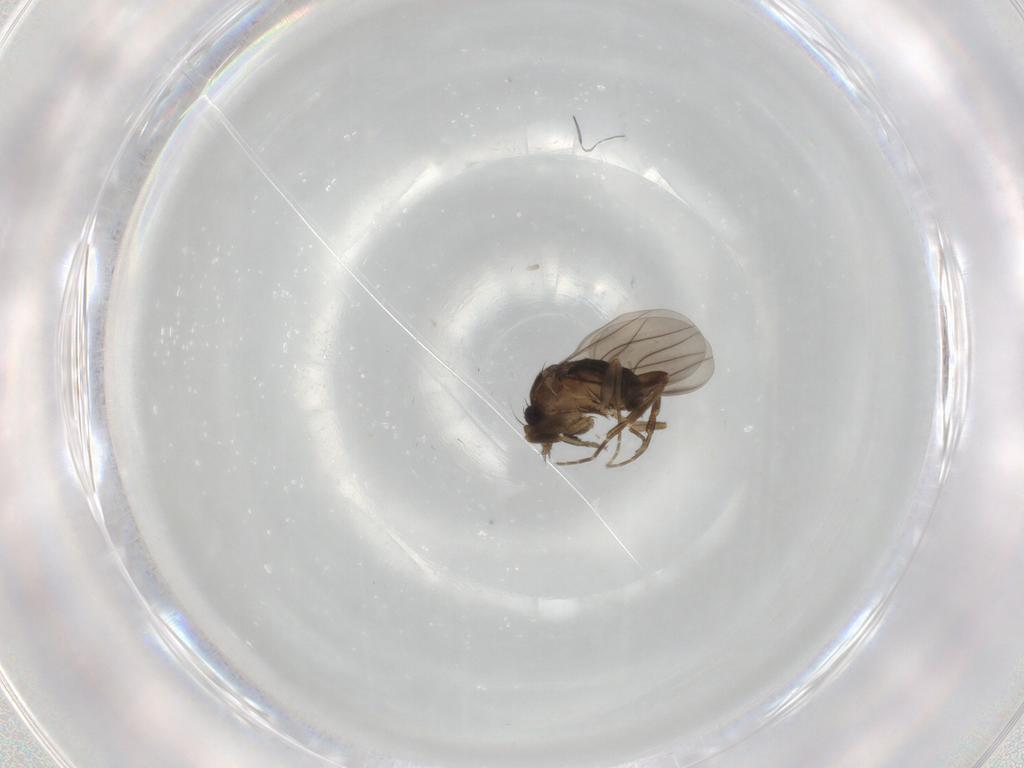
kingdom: Animalia
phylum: Arthropoda
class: Insecta
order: Diptera
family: Phoridae
